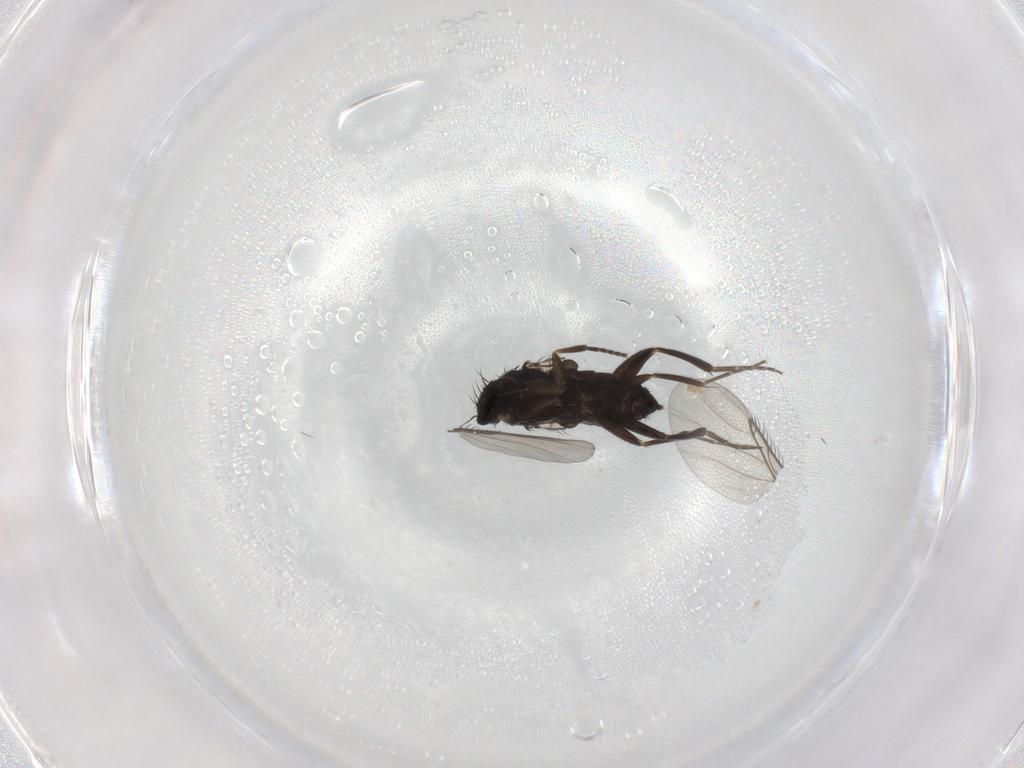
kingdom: Animalia
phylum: Arthropoda
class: Insecta
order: Diptera
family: Phoridae
